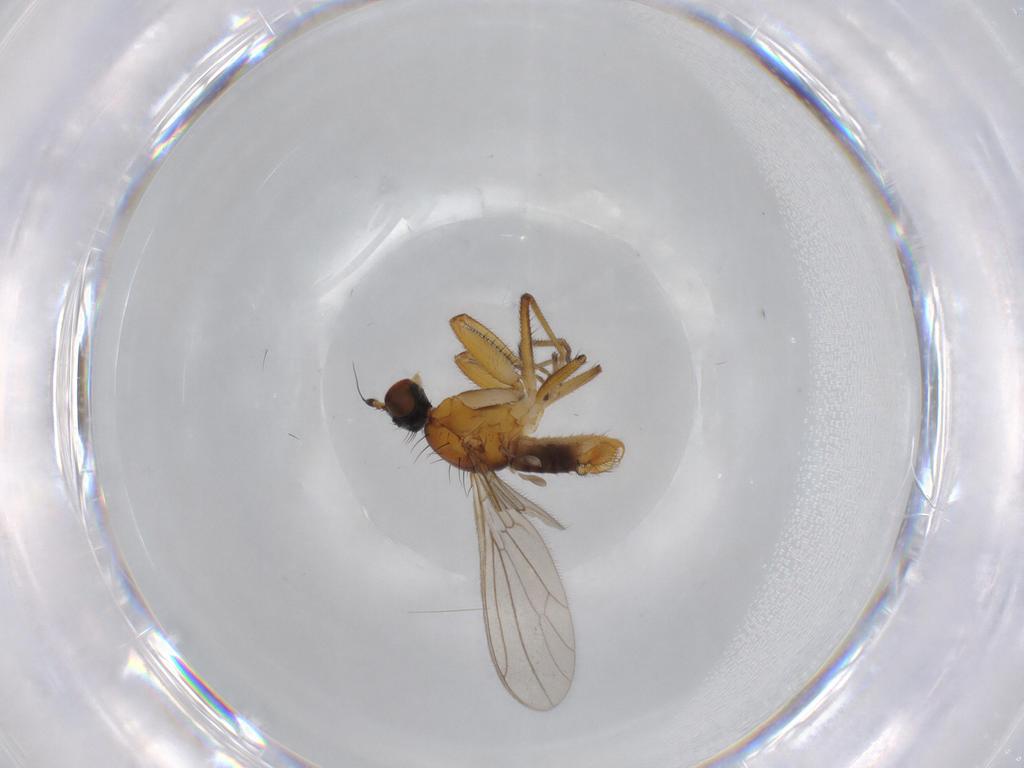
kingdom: Animalia
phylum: Arthropoda
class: Insecta
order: Diptera
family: Empididae
